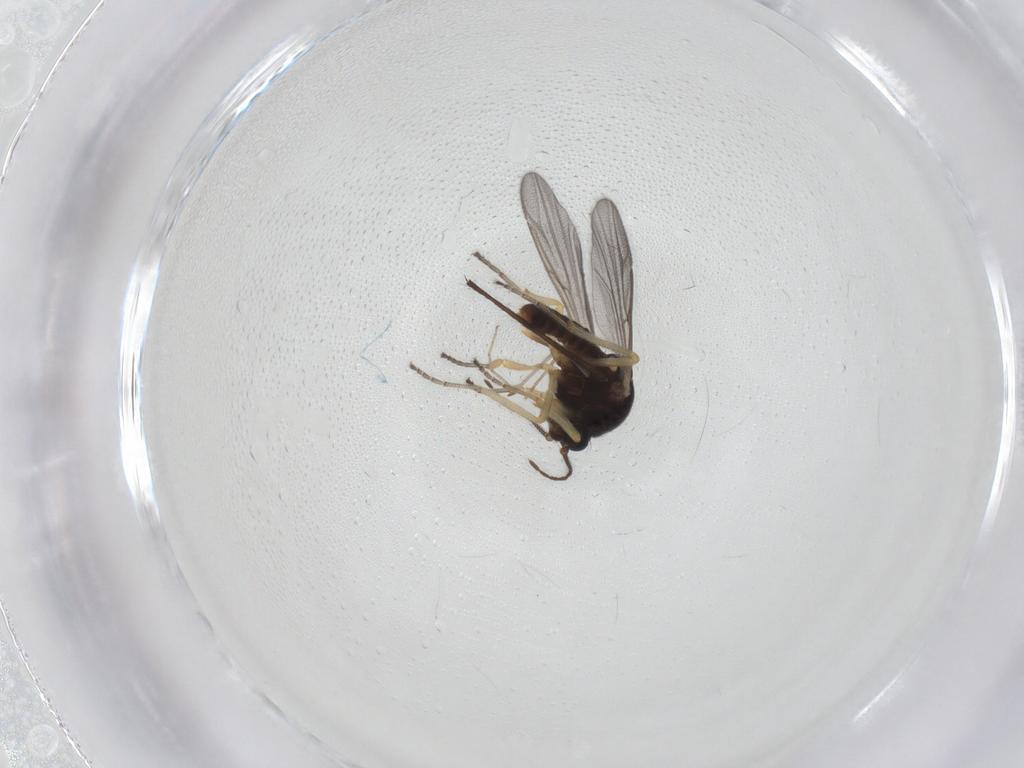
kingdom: Animalia
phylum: Arthropoda
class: Insecta
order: Diptera
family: Ceratopogonidae
